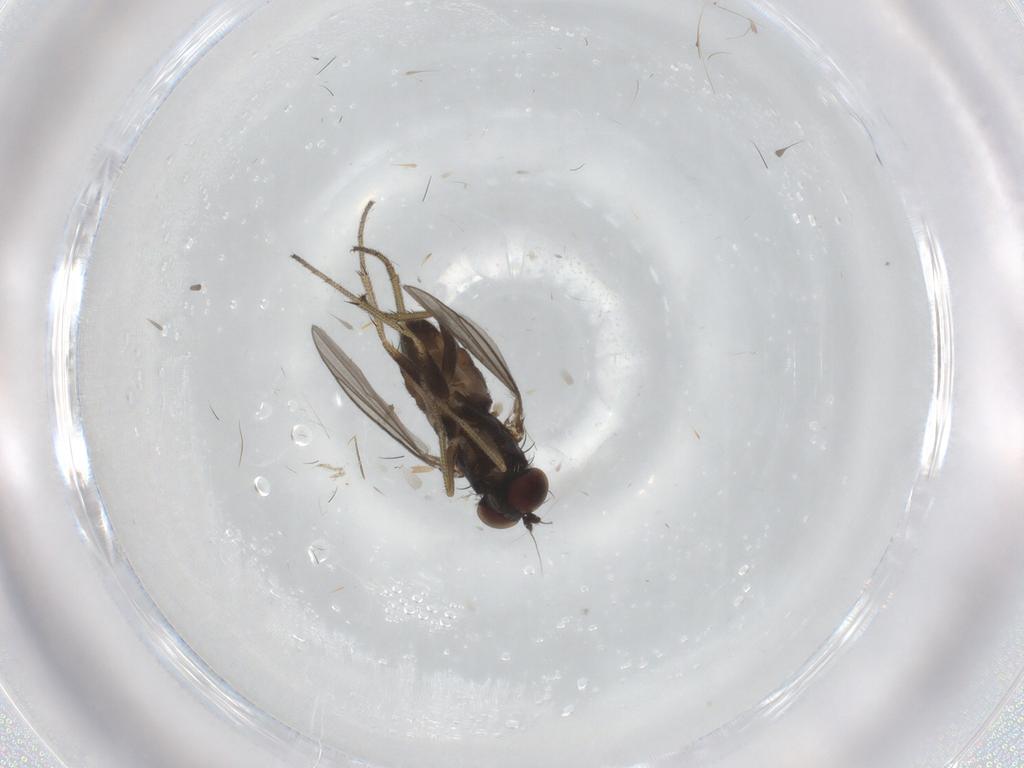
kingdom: Animalia
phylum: Arthropoda
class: Insecta
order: Diptera
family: Dolichopodidae
